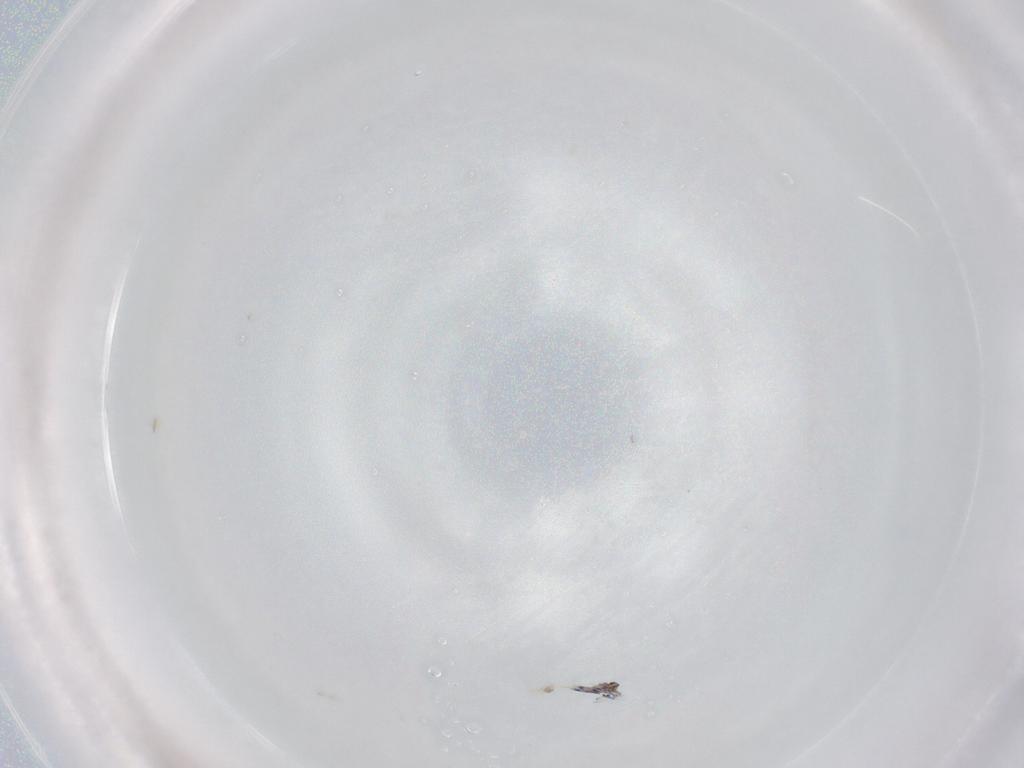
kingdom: Animalia
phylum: Arthropoda
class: Collembola
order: Entomobryomorpha
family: Entomobryidae
